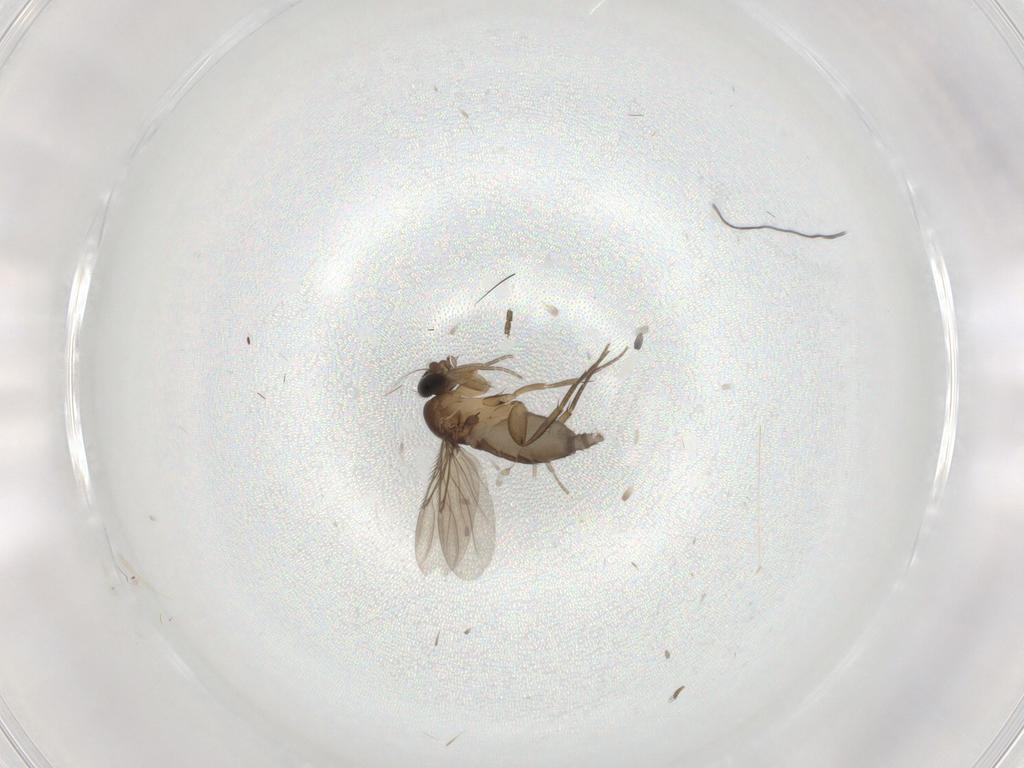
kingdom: Animalia
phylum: Arthropoda
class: Insecta
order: Diptera
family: Phoridae
